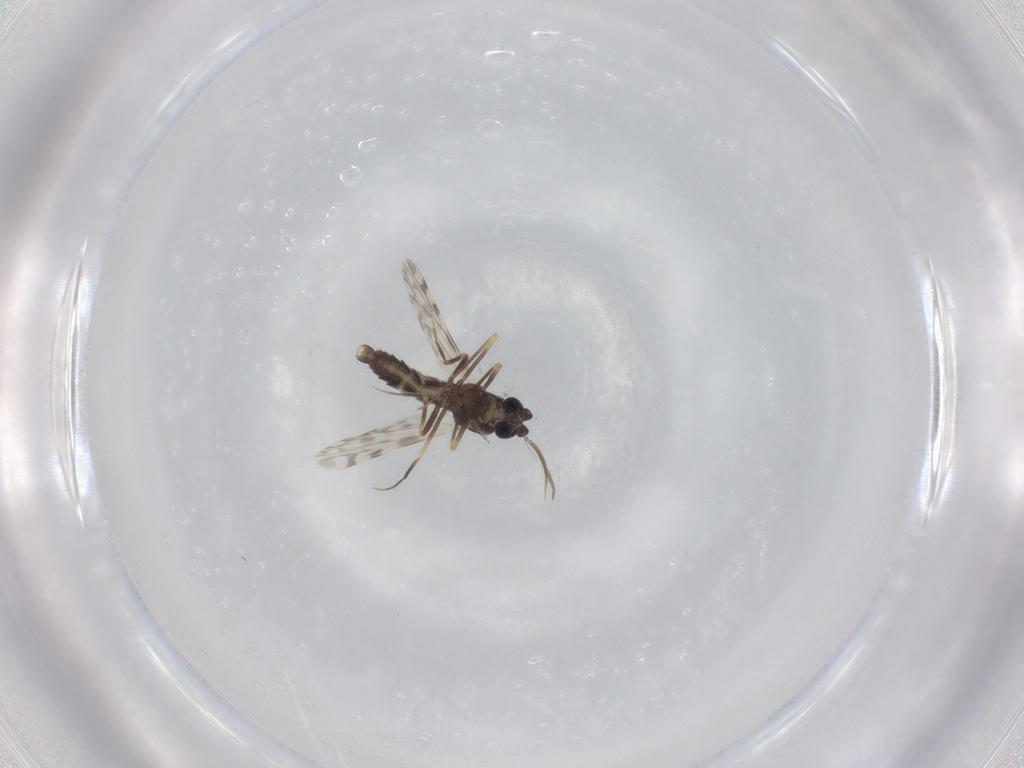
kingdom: Animalia
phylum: Arthropoda
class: Insecta
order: Diptera
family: Ceratopogonidae
